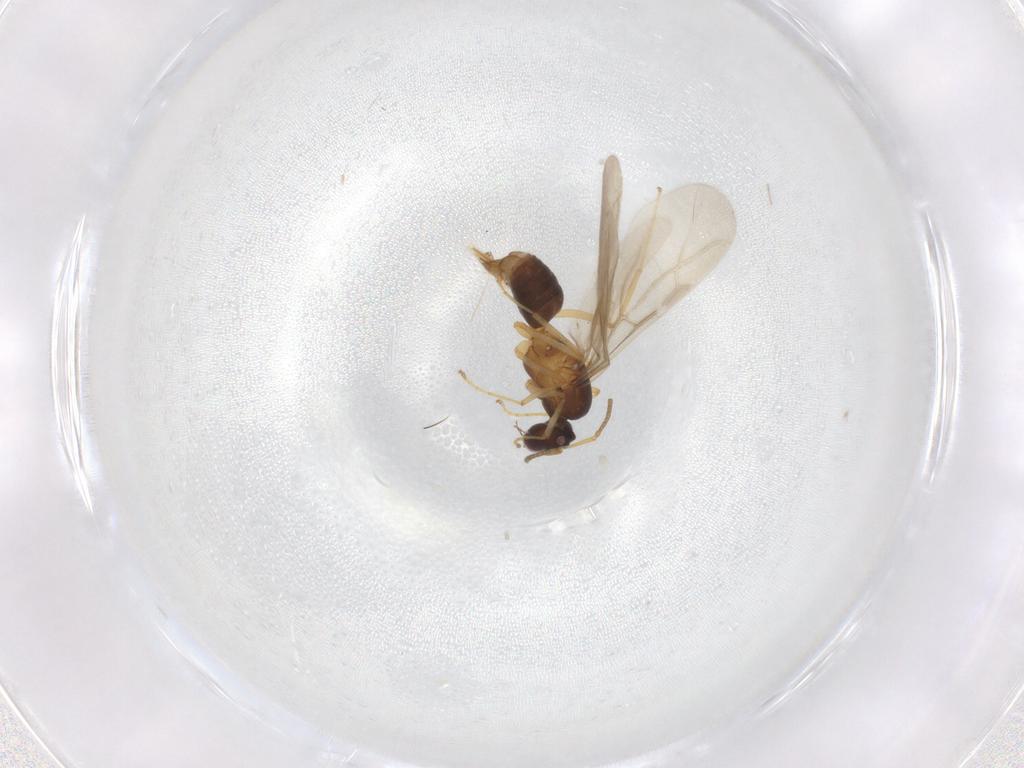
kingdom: Animalia
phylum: Arthropoda
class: Insecta
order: Hymenoptera
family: Formicidae
